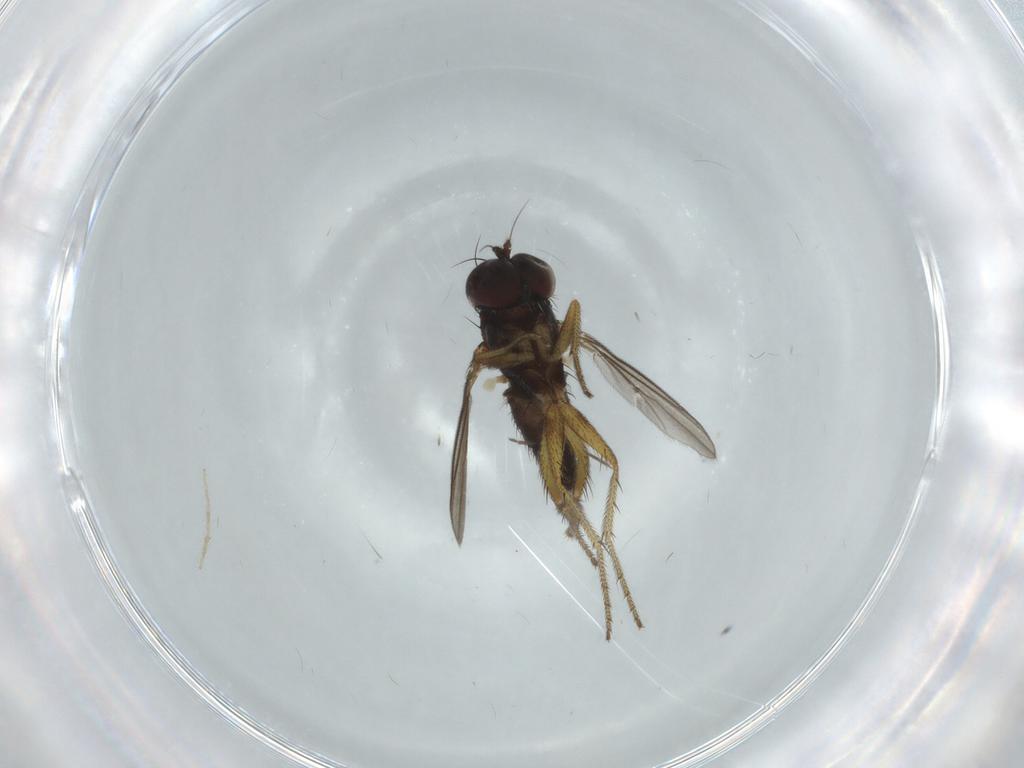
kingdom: Animalia
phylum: Arthropoda
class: Insecta
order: Diptera
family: Dolichopodidae
